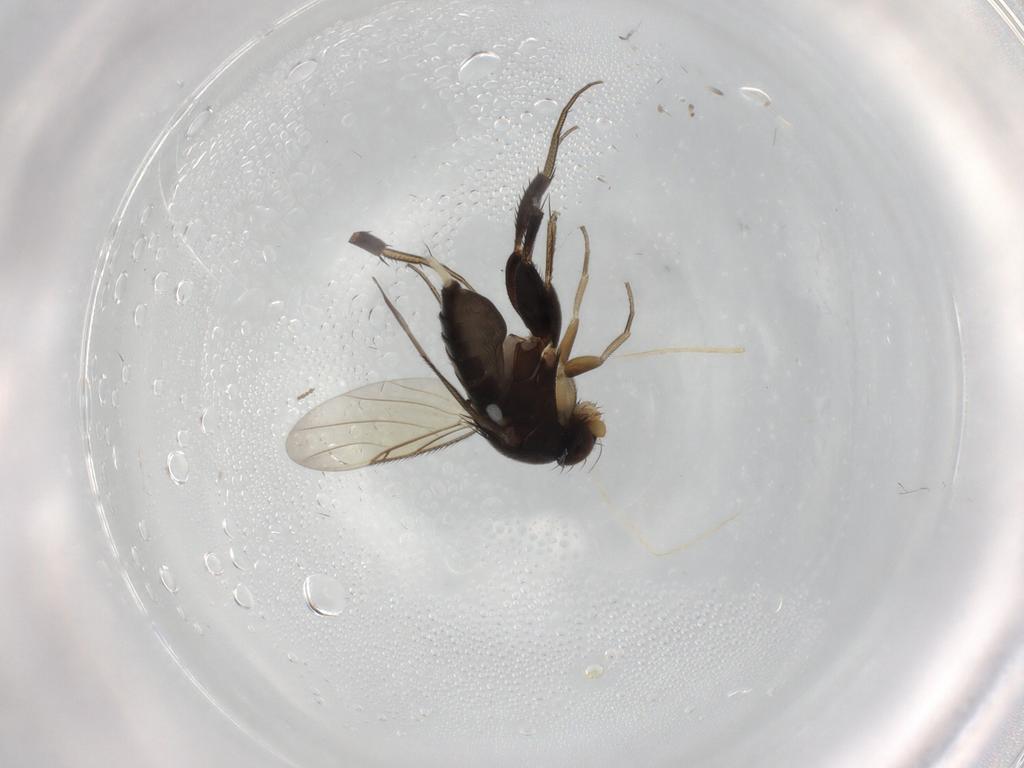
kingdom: Animalia
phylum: Arthropoda
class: Insecta
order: Diptera
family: Phoridae
